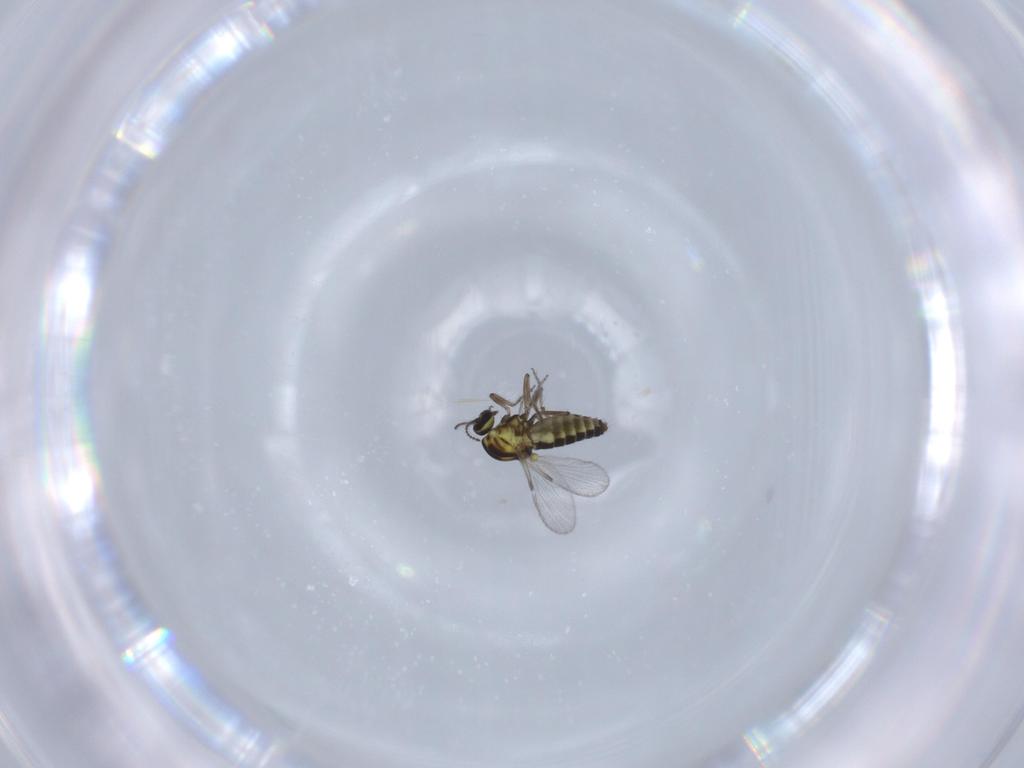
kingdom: Animalia
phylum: Arthropoda
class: Insecta
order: Diptera
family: Ceratopogonidae
